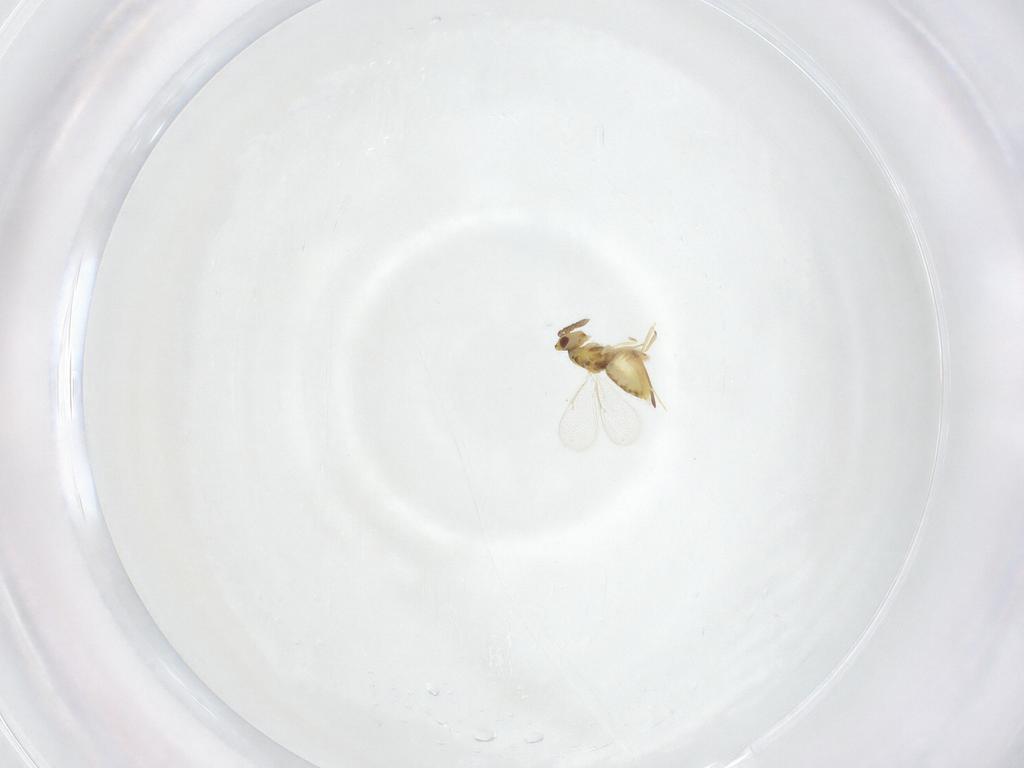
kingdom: Animalia
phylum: Arthropoda
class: Insecta
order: Hymenoptera
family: Eulophidae
